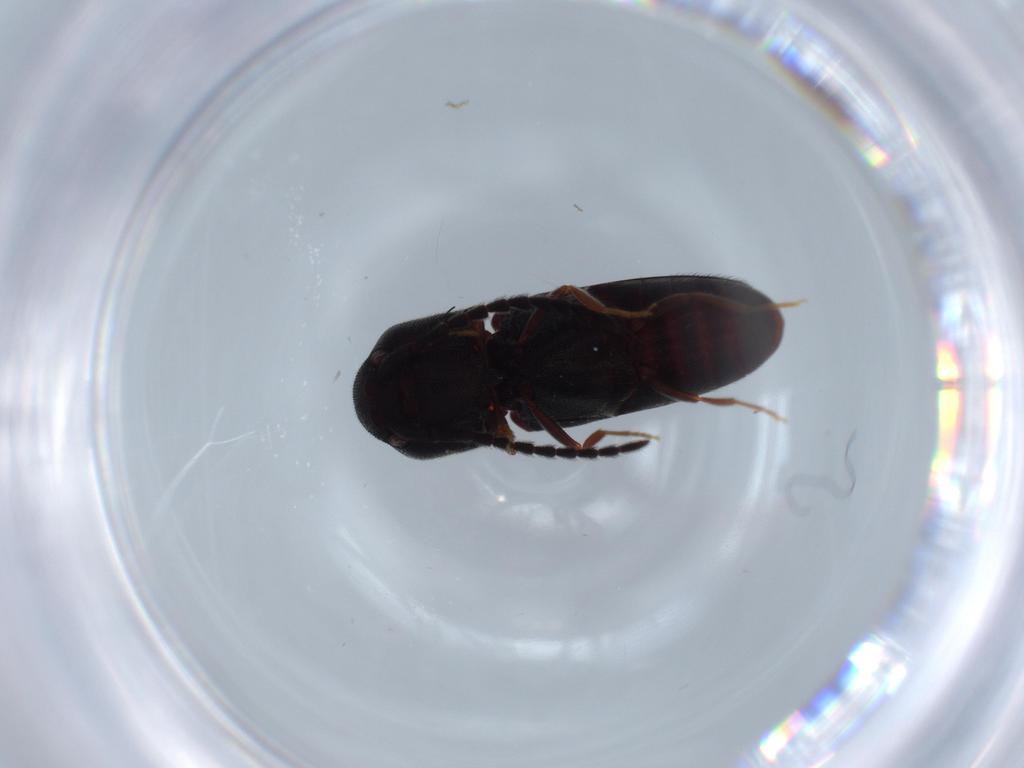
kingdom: Animalia
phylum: Arthropoda
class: Insecta
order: Coleoptera
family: Eucnemidae
